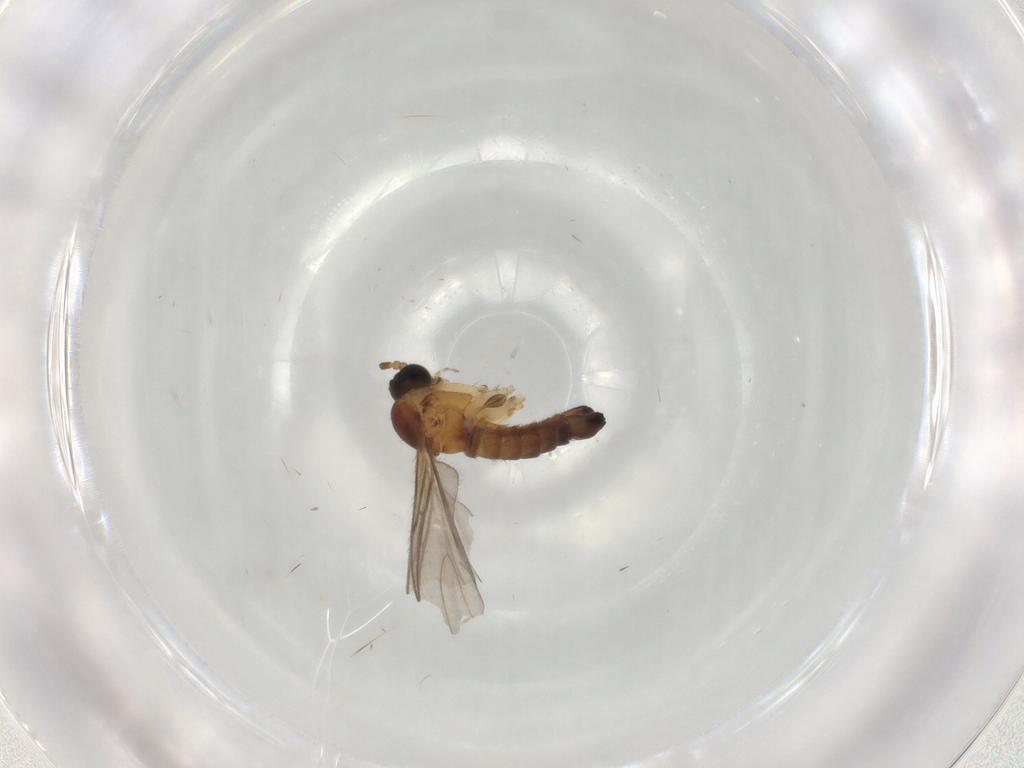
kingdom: Animalia
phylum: Arthropoda
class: Insecta
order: Diptera
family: Sciaridae
